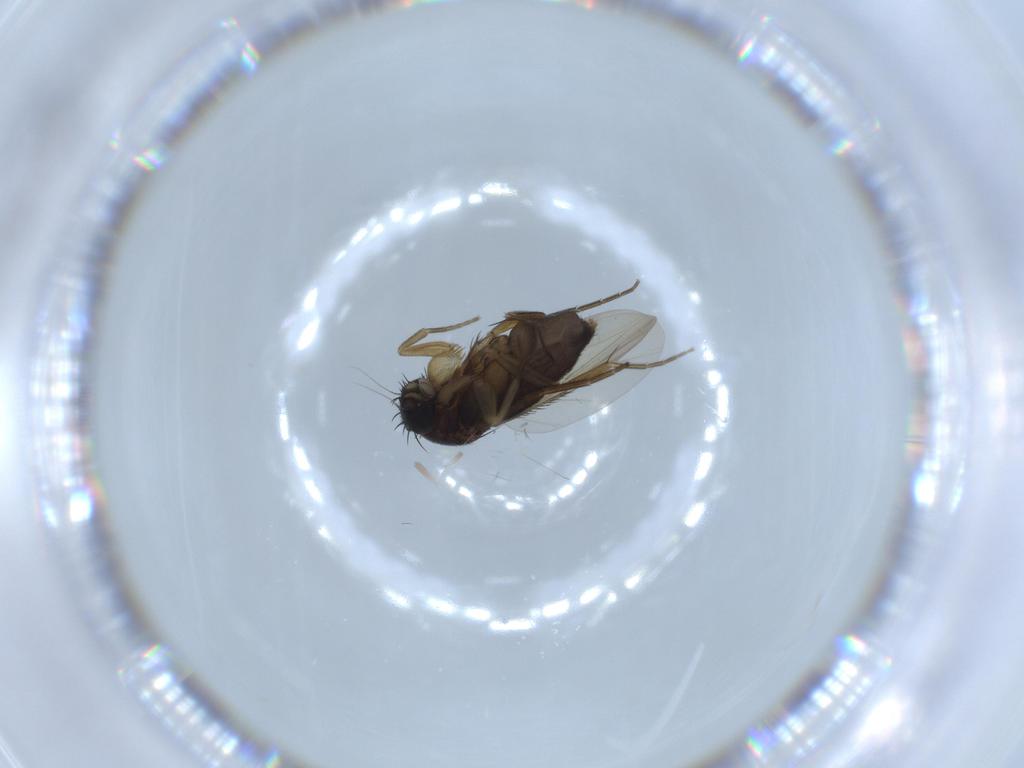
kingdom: Animalia
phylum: Arthropoda
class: Insecta
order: Diptera
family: Phoridae
